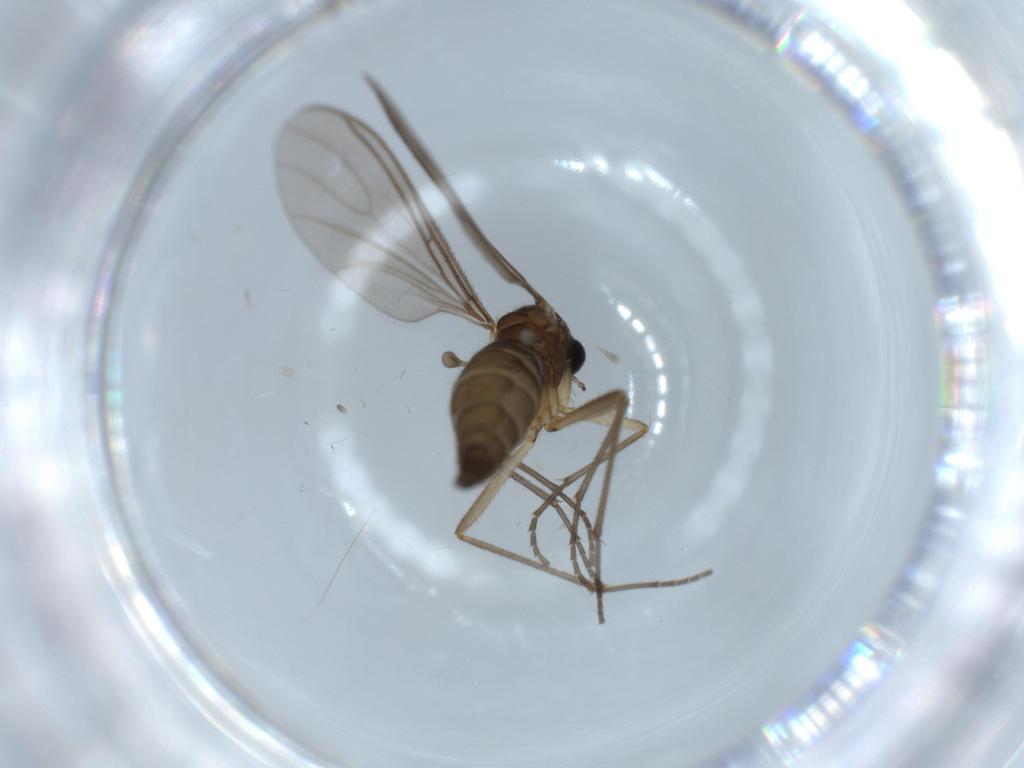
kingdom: Animalia
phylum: Arthropoda
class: Insecta
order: Diptera
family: Sciaridae
